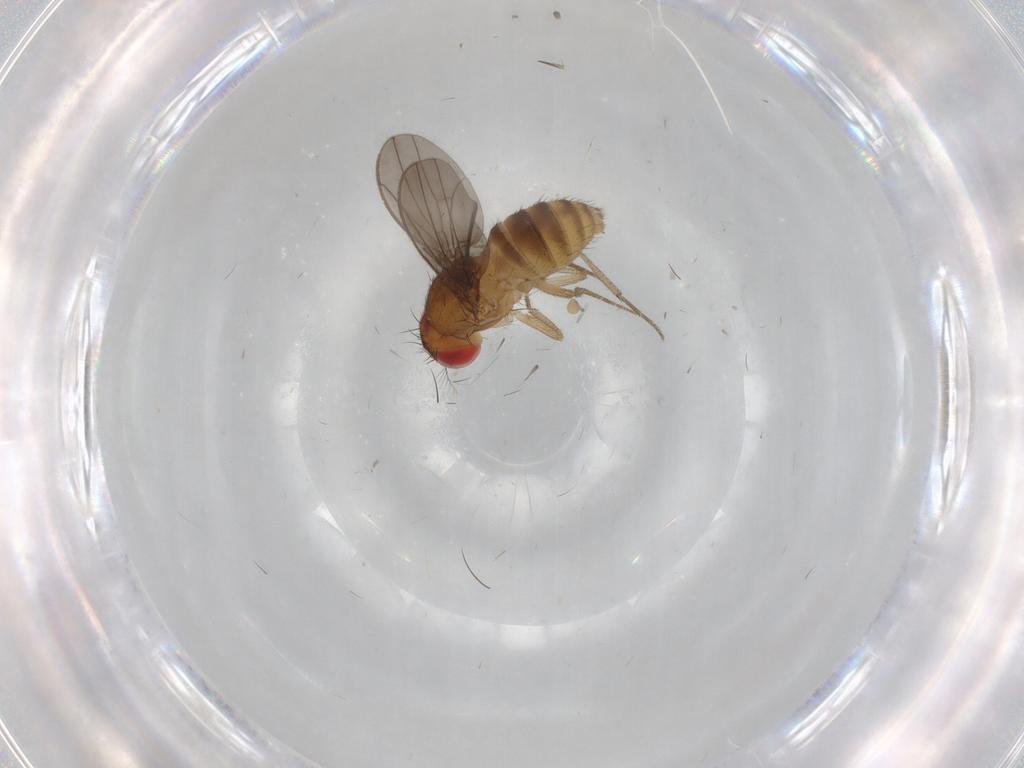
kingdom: Animalia
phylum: Arthropoda
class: Insecta
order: Diptera
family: Drosophilidae
